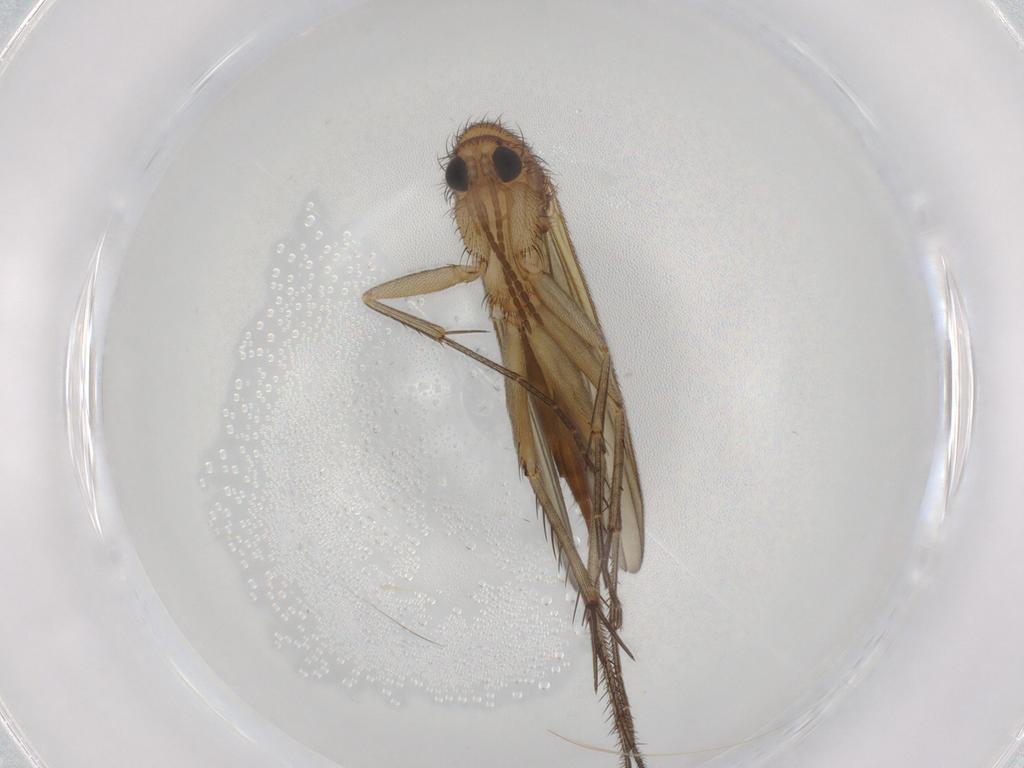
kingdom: Animalia
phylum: Arthropoda
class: Insecta
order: Diptera
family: Mycetophilidae
